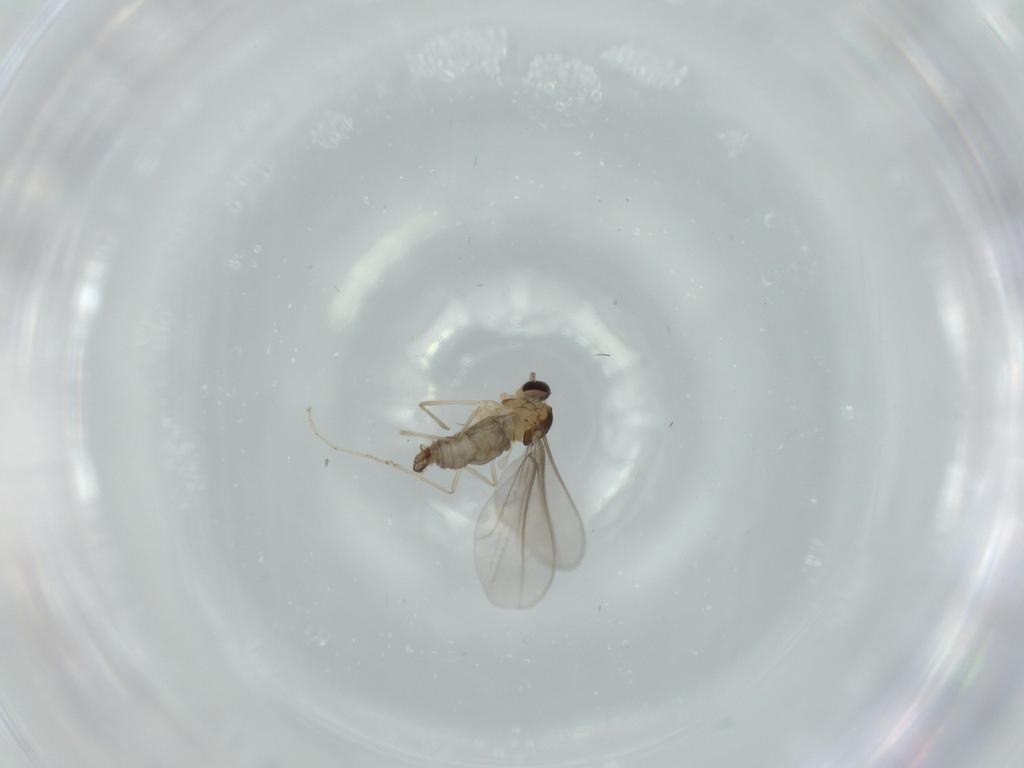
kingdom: Animalia
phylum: Arthropoda
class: Insecta
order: Diptera
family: Cecidomyiidae
